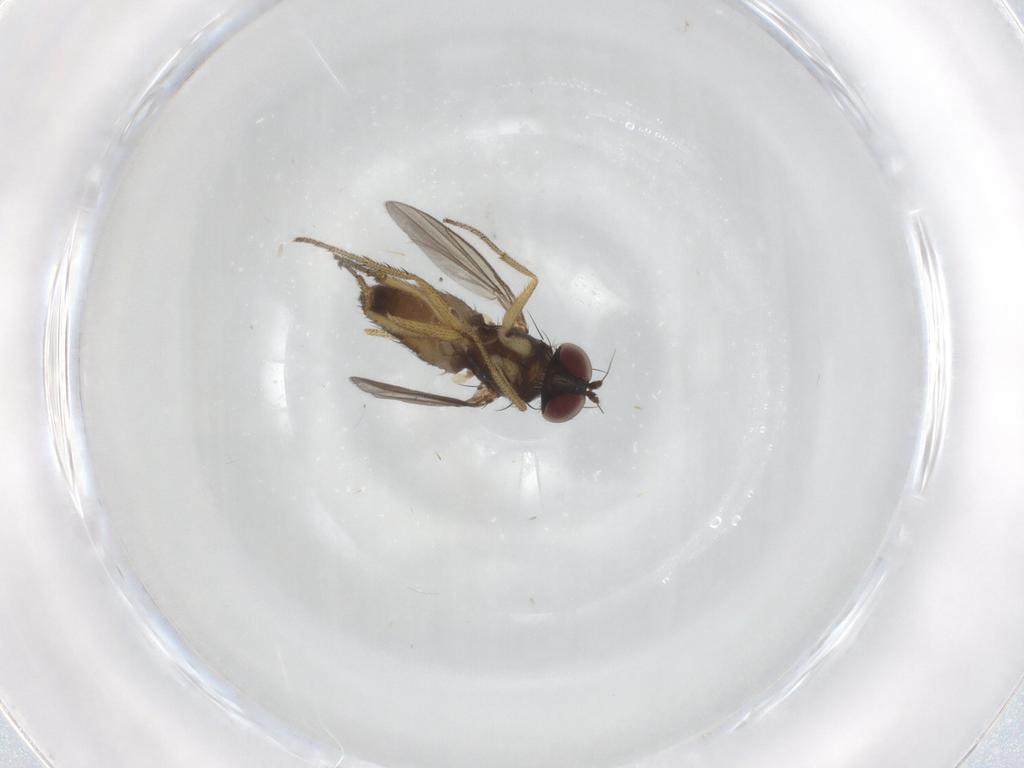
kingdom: Animalia
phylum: Arthropoda
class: Insecta
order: Diptera
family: Dolichopodidae
